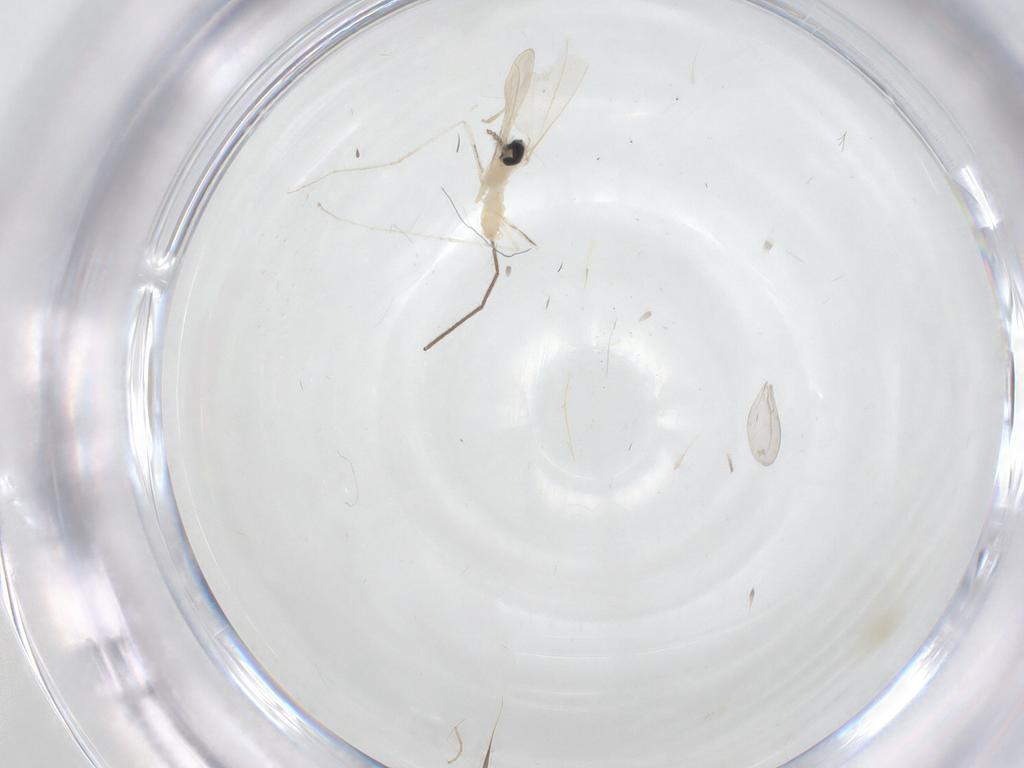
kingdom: Animalia
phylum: Arthropoda
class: Insecta
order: Diptera
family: Cecidomyiidae
